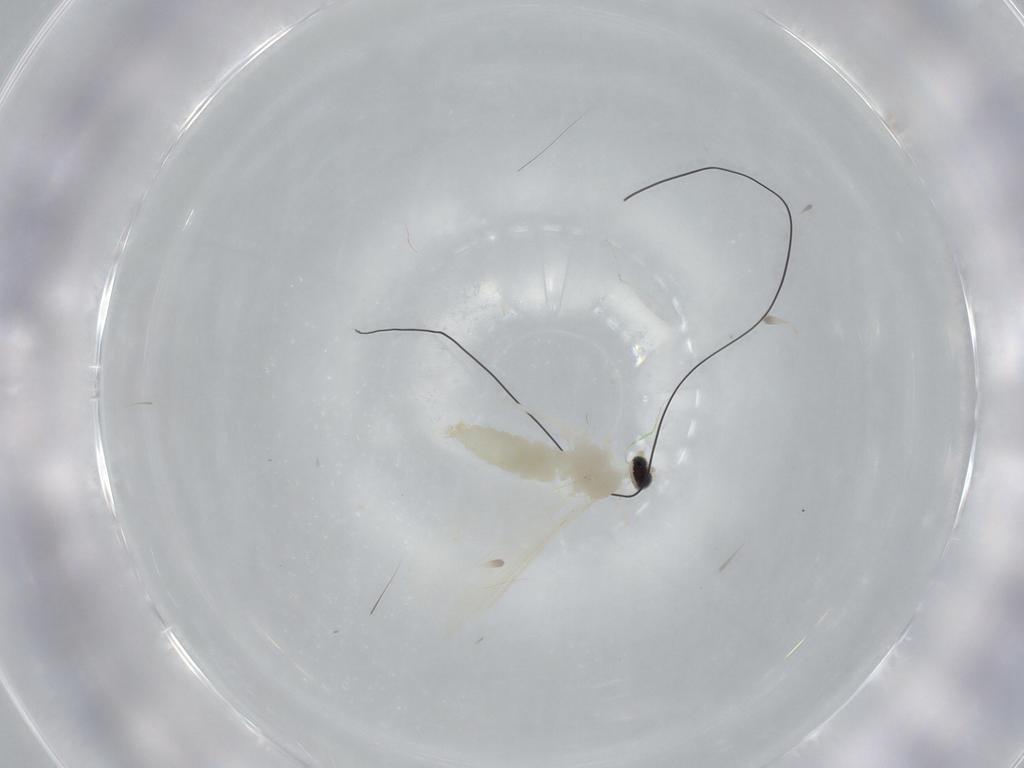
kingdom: Animalia
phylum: Arthropoda
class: Insecta
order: Diptera
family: Cecidomyiidae
